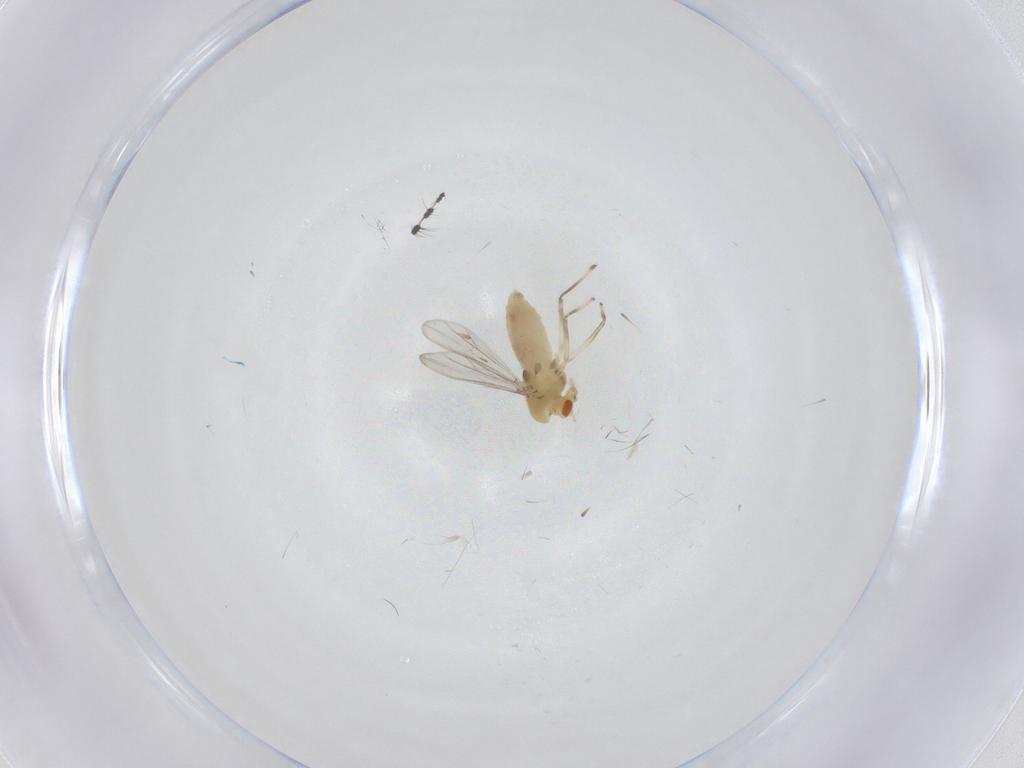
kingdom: Animalia
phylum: Arthropoda
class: Insecta
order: Diptera
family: Chironomidae
